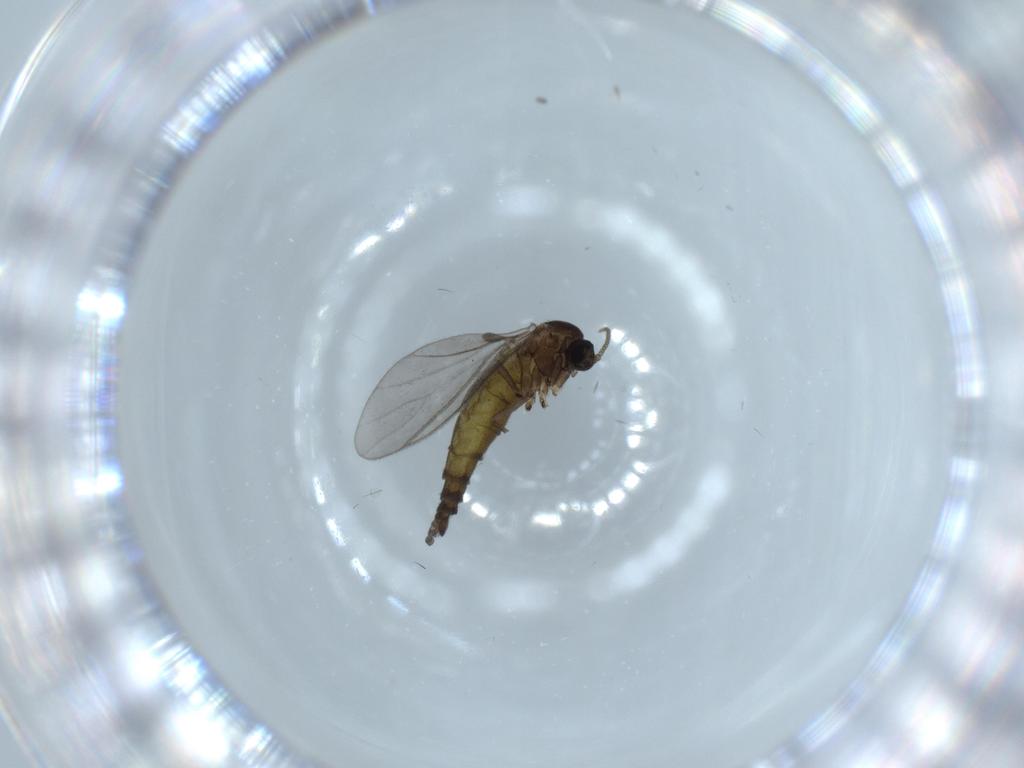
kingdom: Animalia
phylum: Arthropoda
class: Insecta
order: Diptera
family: Sciaridae
